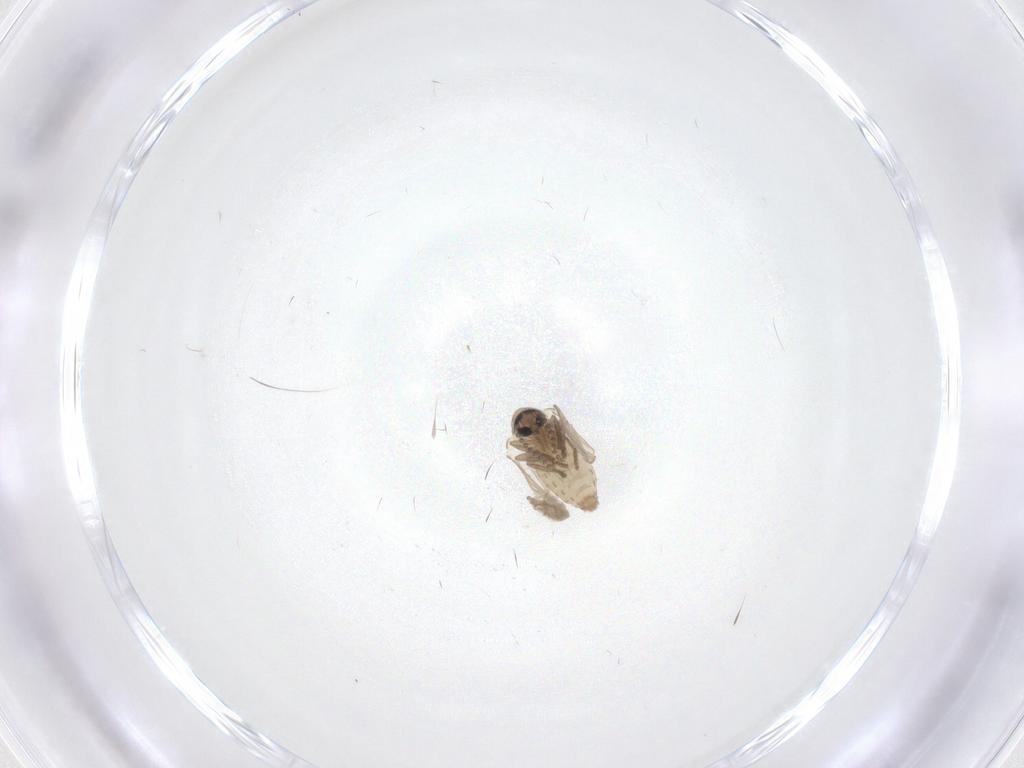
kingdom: Animalia
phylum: Arthropoda
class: Insecta
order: Diptera
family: Psychodidae
